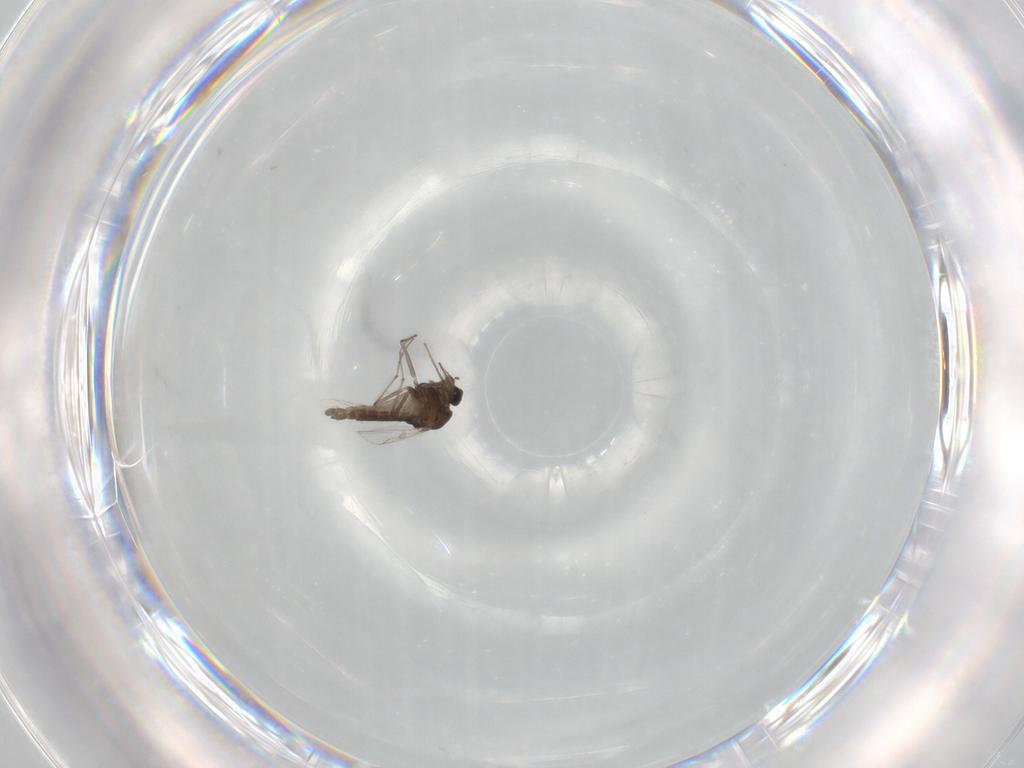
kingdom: Animalia
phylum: Arthropoda
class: Insecta
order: Diptera
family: Chironomidae
